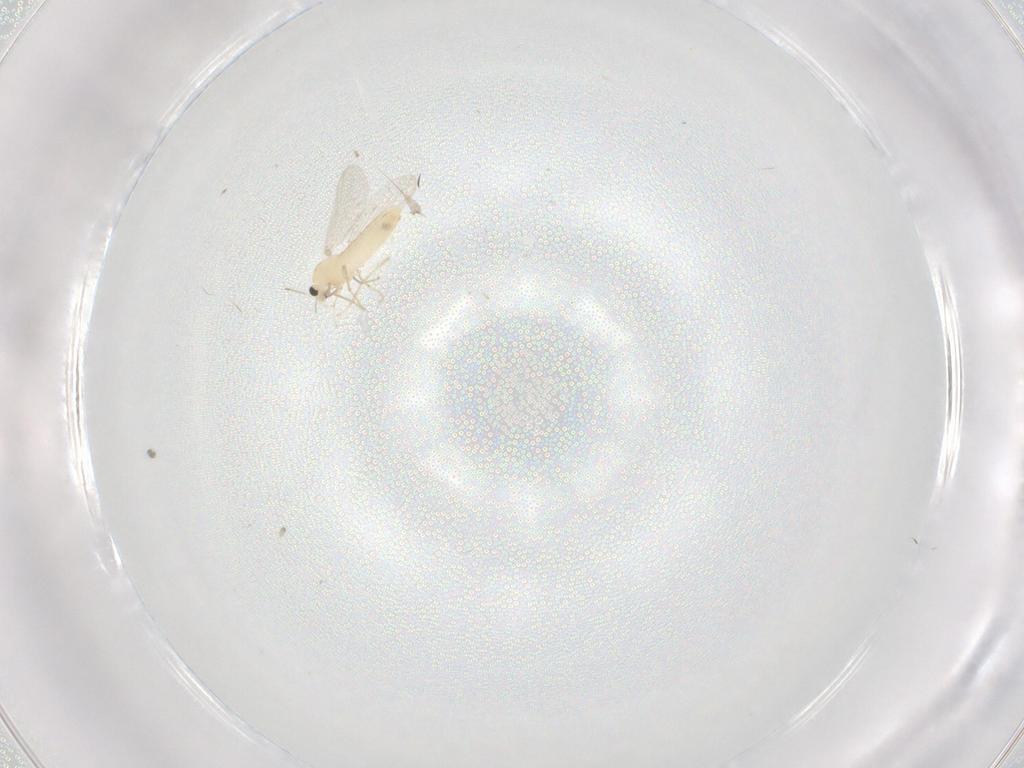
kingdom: Animalia
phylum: Arthropoda
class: Insecta
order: Diptera
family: Chironomidae
